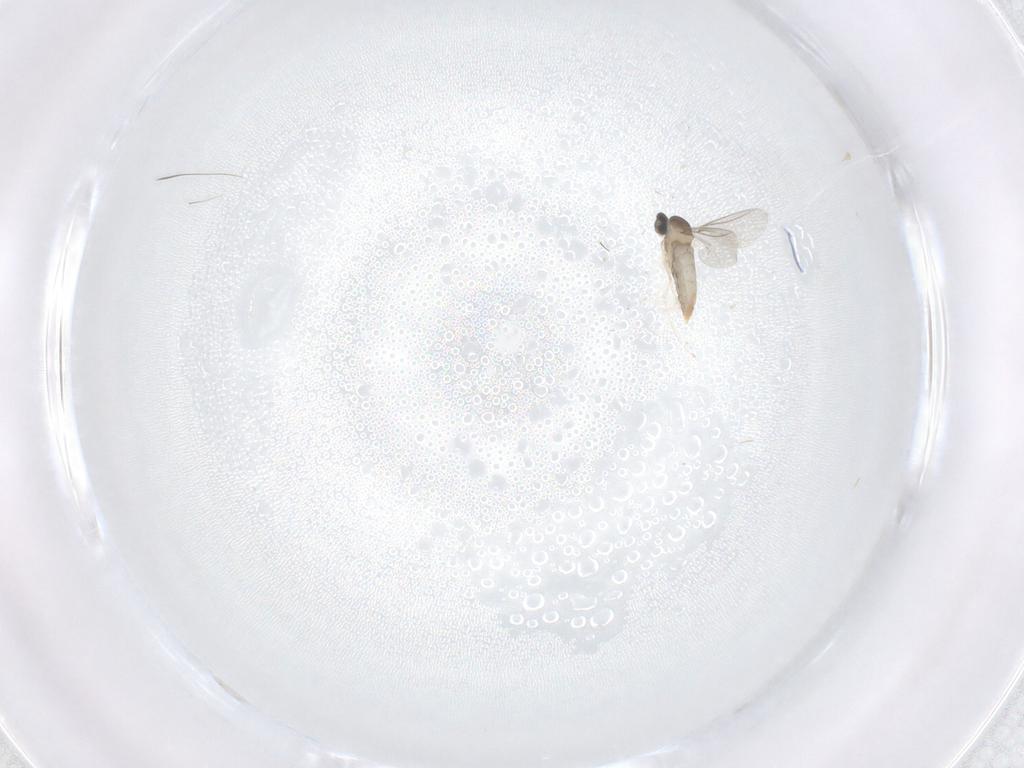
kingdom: Animalia
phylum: Arthropoda
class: Insecta
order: Diptera
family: Cecidomyiidae
